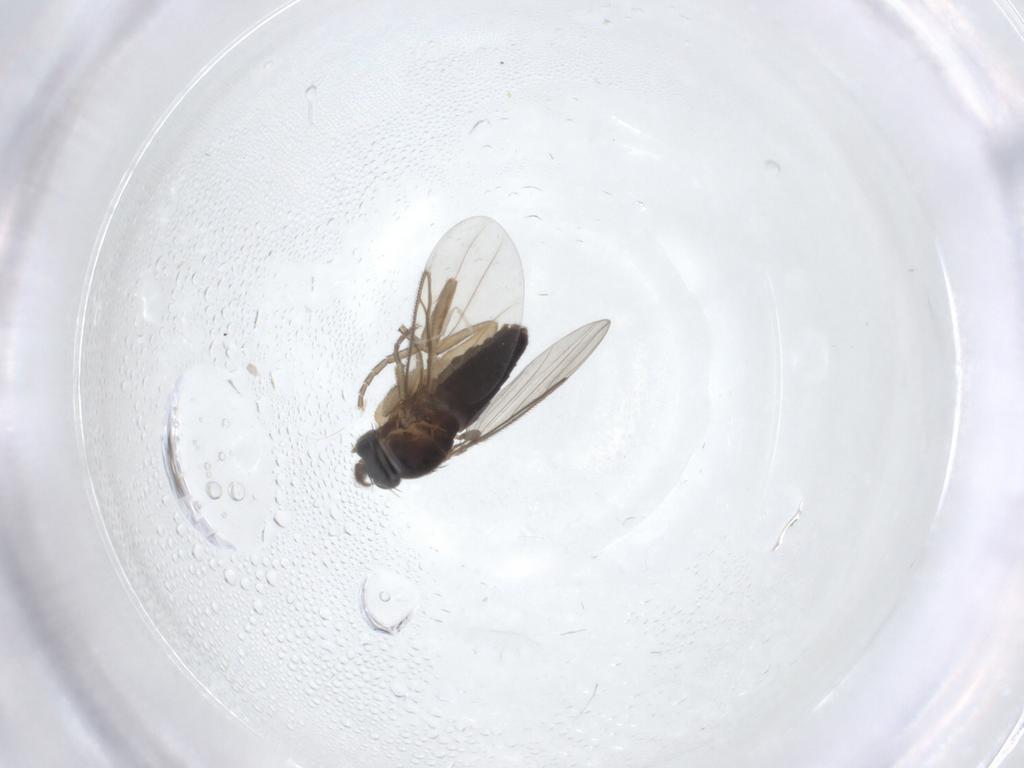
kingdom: Animalia
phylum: Arthropoda
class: Insecta
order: Diptera
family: Phoridae
